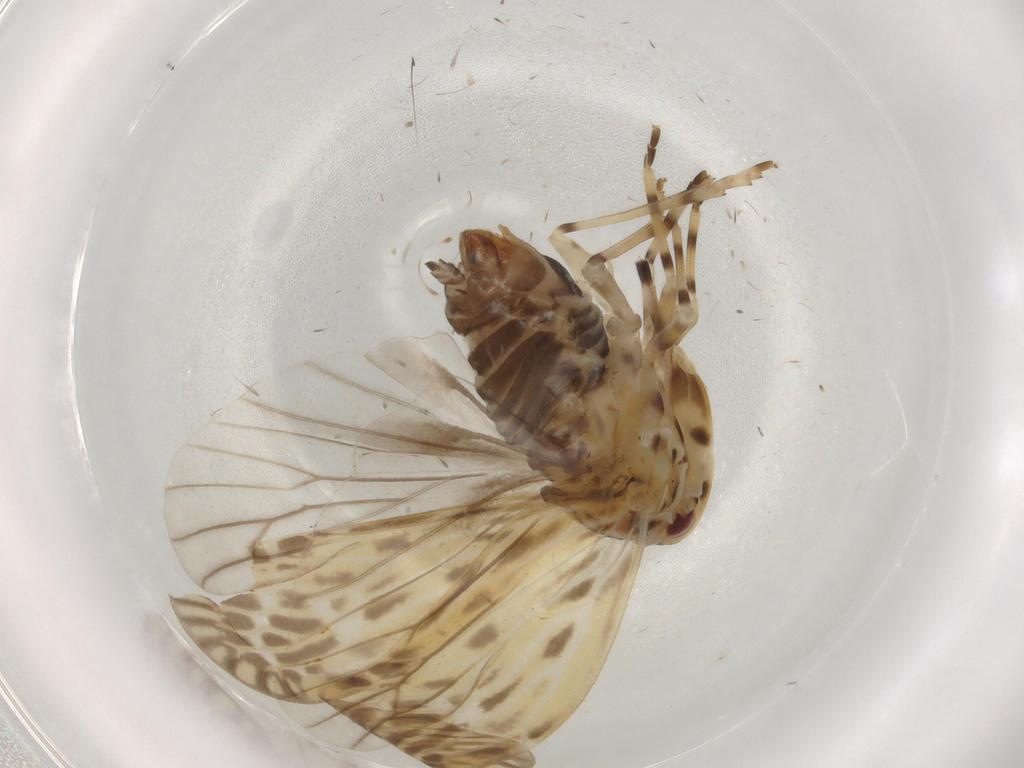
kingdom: Animalia
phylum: Arthropoda
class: Insecta
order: Hemiptera
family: Derbidae
